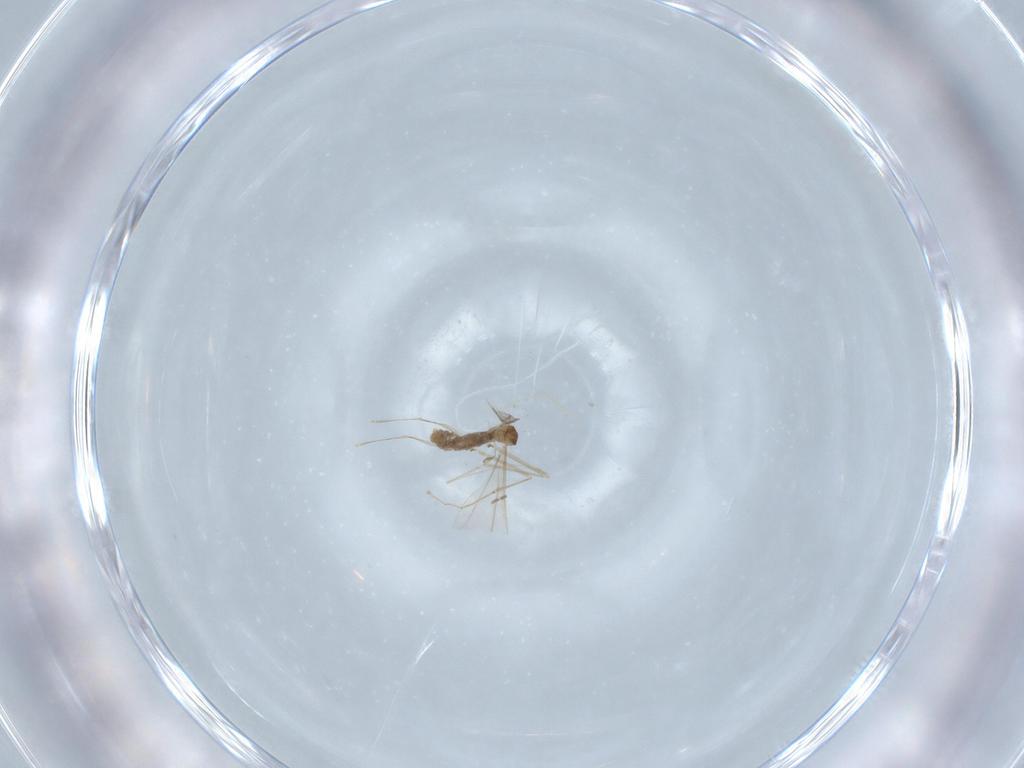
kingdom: Animalia
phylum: Arthropoda
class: Insecta
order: Diptera
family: Cecidomyiidae
